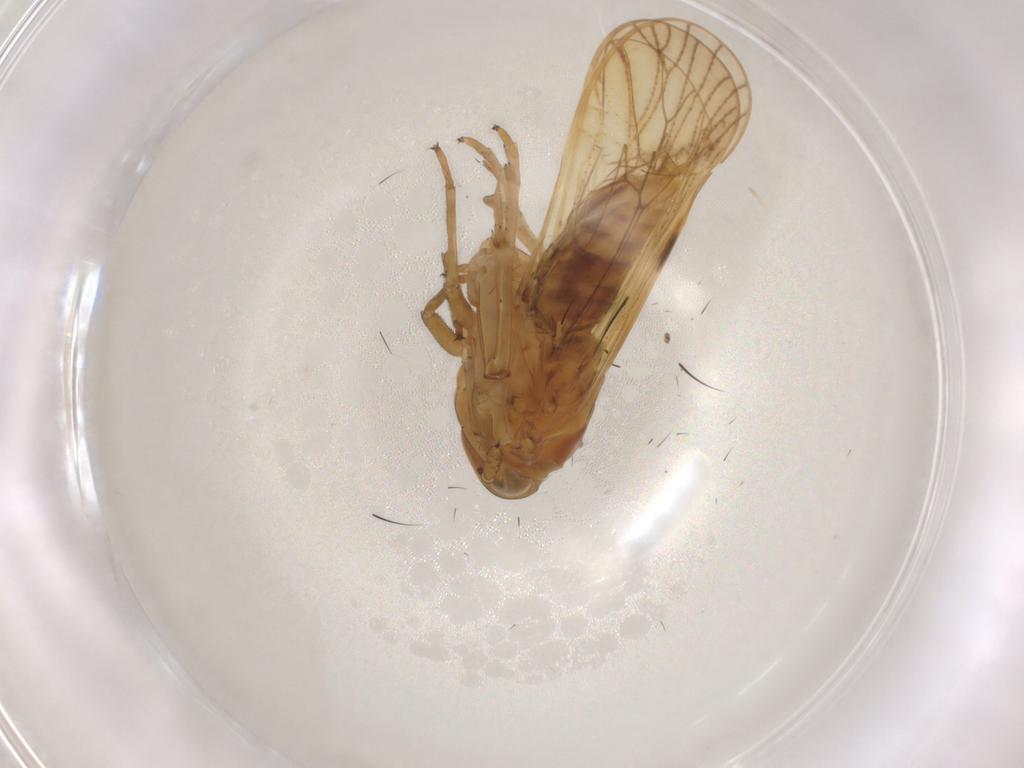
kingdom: Animalia
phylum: Arthropoda
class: Insecta
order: Hemiptera
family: Delphacidae
